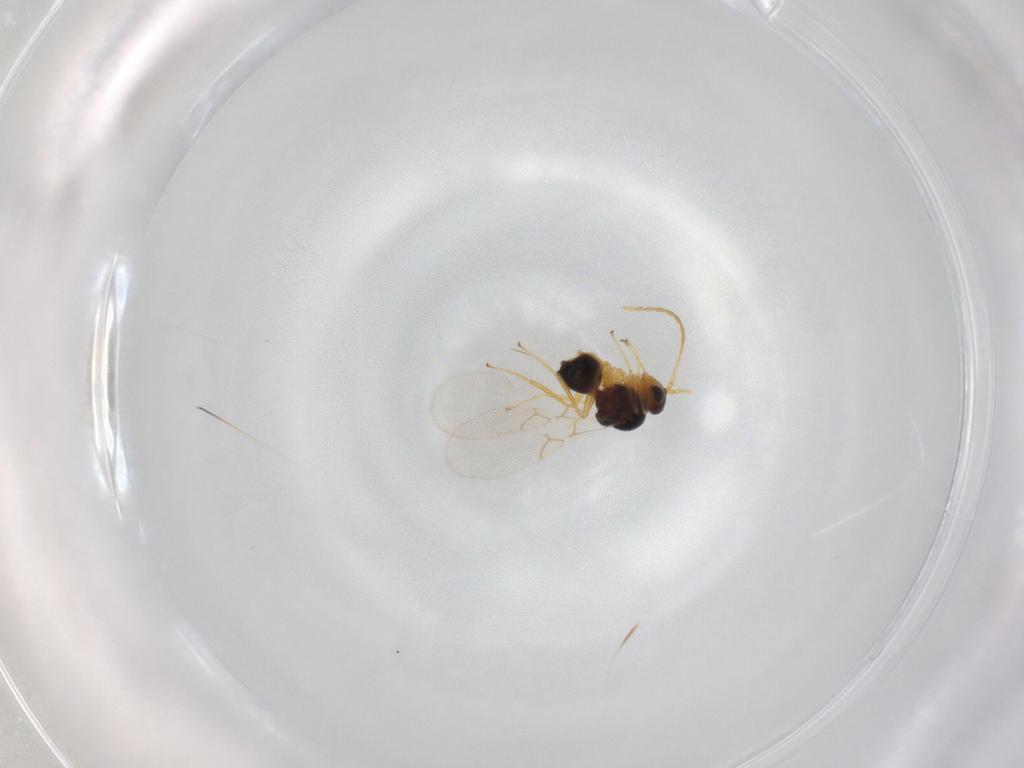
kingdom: Animalia
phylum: Arthropoda
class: Insecta
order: Hymenoptera
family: Figitidae
